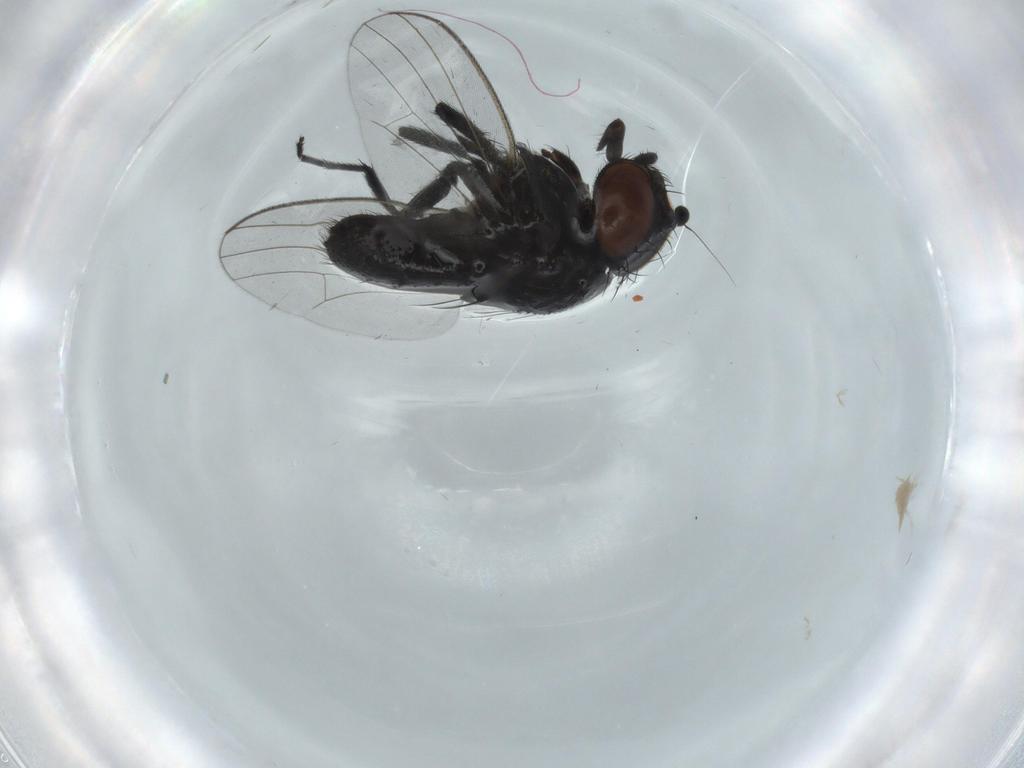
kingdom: Animalia
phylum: Arthropoda
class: Insecta
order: Diptera
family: Milichiidae
